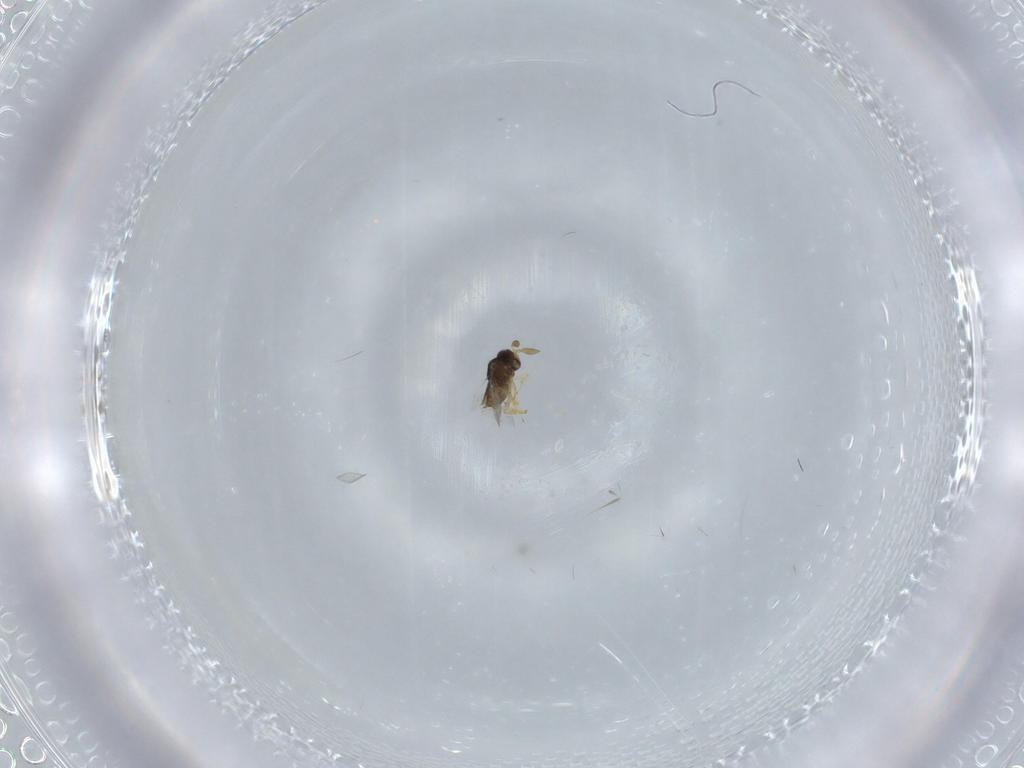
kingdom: Animalia
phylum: Arthropoda
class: Insecta
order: Hymenoptera
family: Encyrtidae
